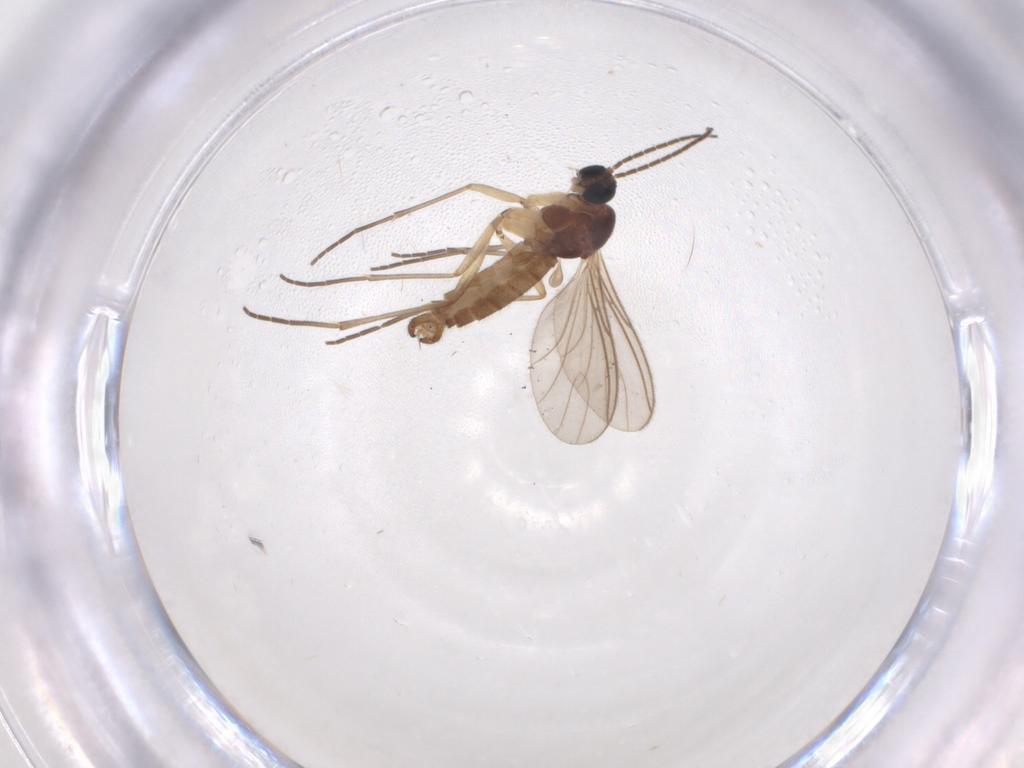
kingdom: Animalia
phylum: Arthropoda
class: Insecta
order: Diptera
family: Sciaridae
